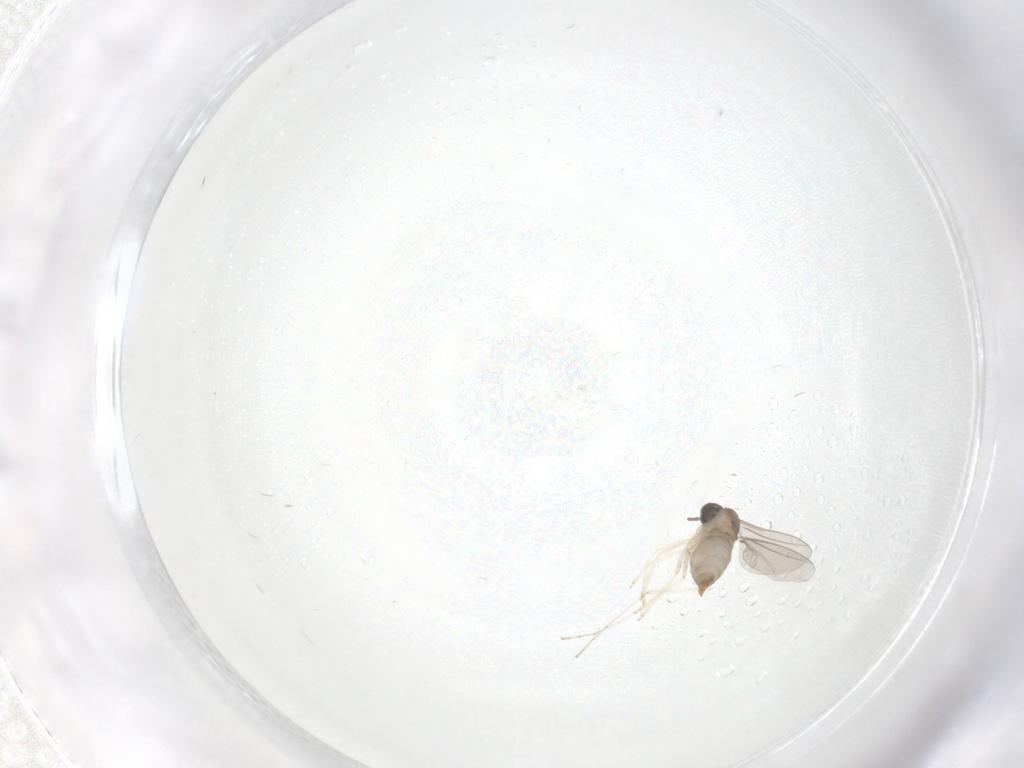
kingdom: Animalia
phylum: Arthropoda
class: Insecta
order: Diptera
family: Cecidomyiidae
